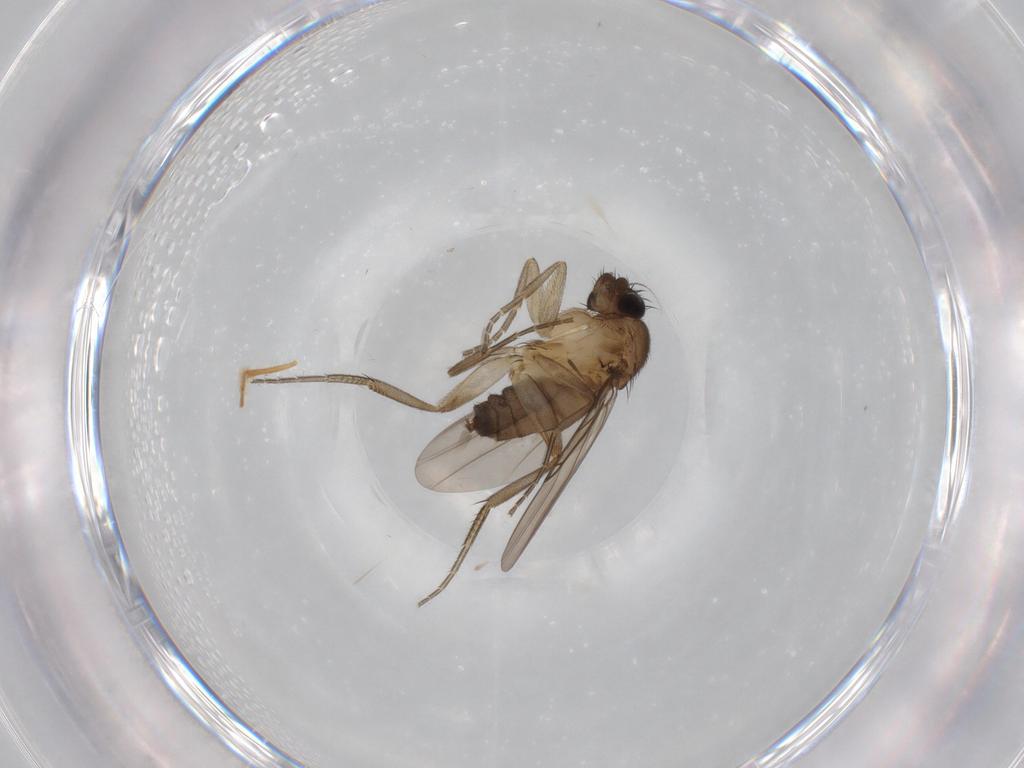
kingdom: Animalia
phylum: Arthropoda
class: Insecta
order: Diptera
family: Phoridae
